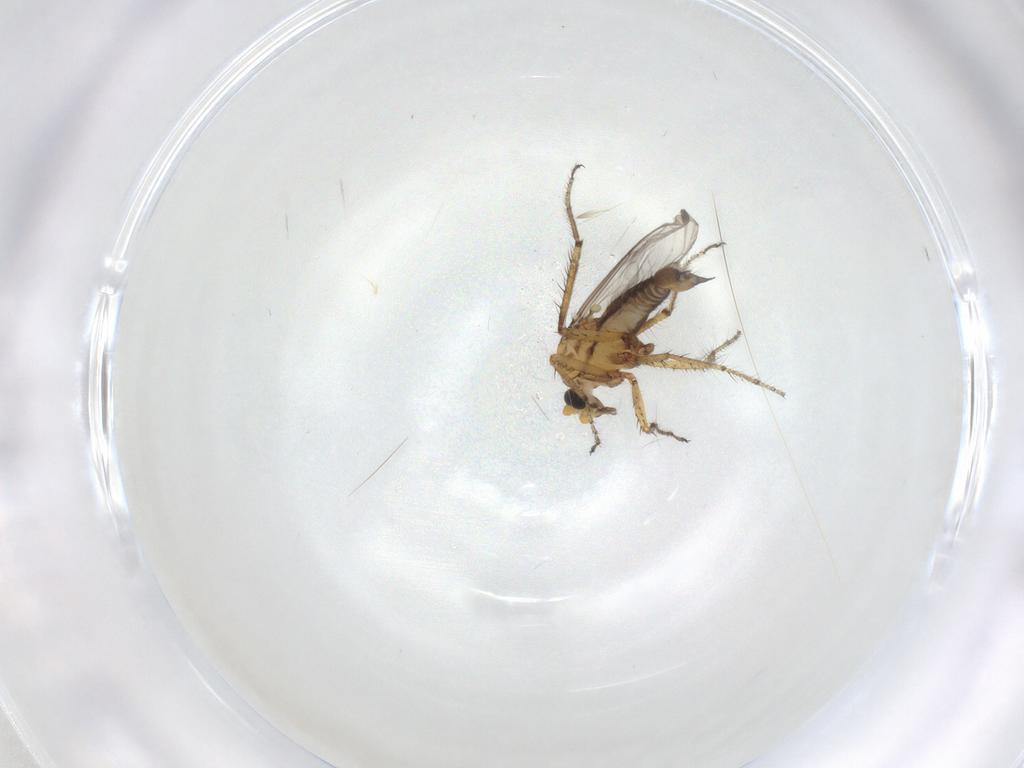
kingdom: Animalia
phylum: Arthropoda
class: Insecta
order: Diptera
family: Ceratopogonidae
